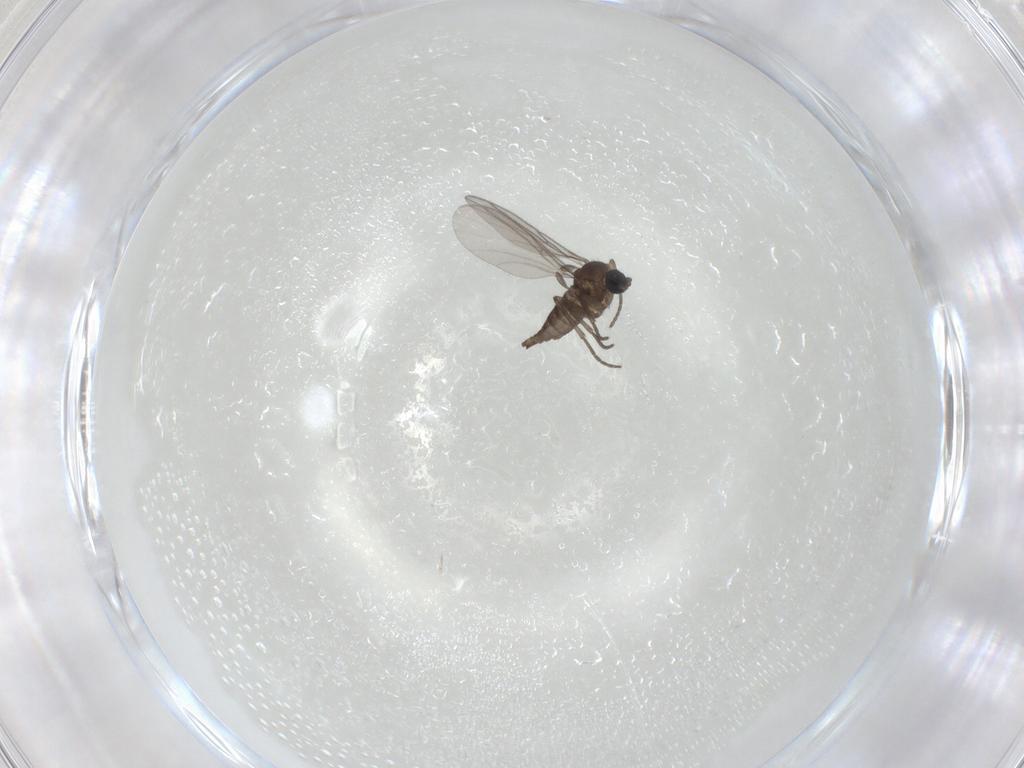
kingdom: Animalia
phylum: Arthropoda
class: Insecta
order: Diptera
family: Sciaridae
